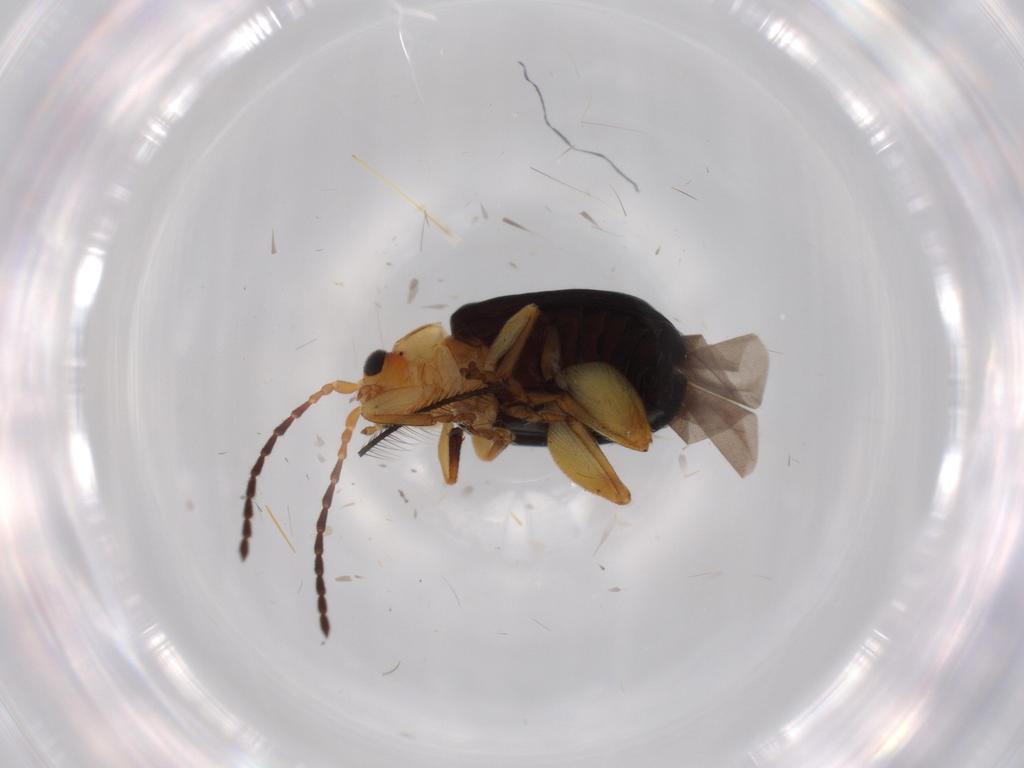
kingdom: Animalia
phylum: Arthropoda
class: Insecta
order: Coleoptera
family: Chrysomelidae
